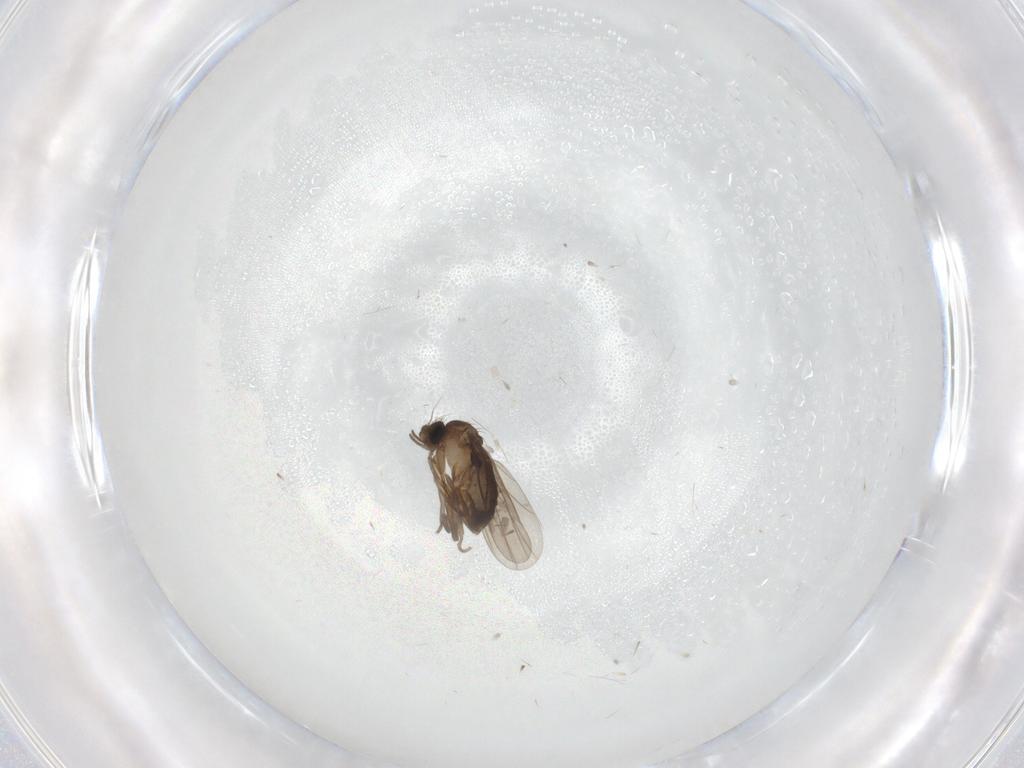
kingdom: Animalia
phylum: Arthropoda
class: Insecta
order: Diptera
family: Cecidomyiidae
